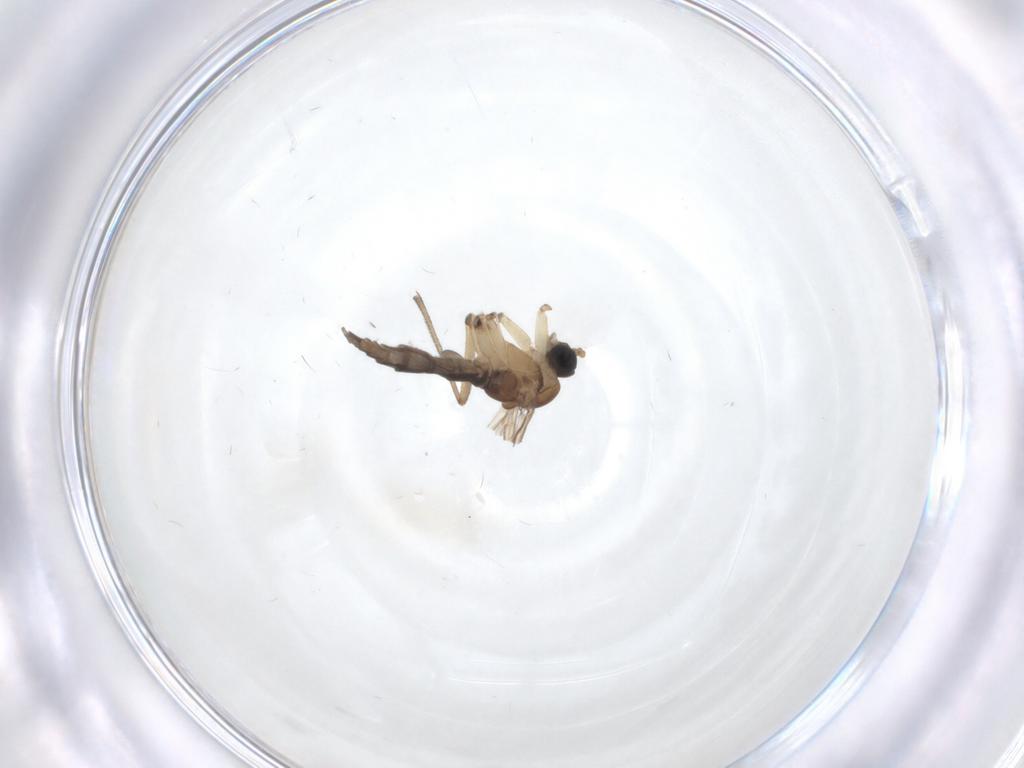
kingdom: Animalia
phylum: Arthropoda
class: Insecta
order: Diptera
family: Sciaridae
